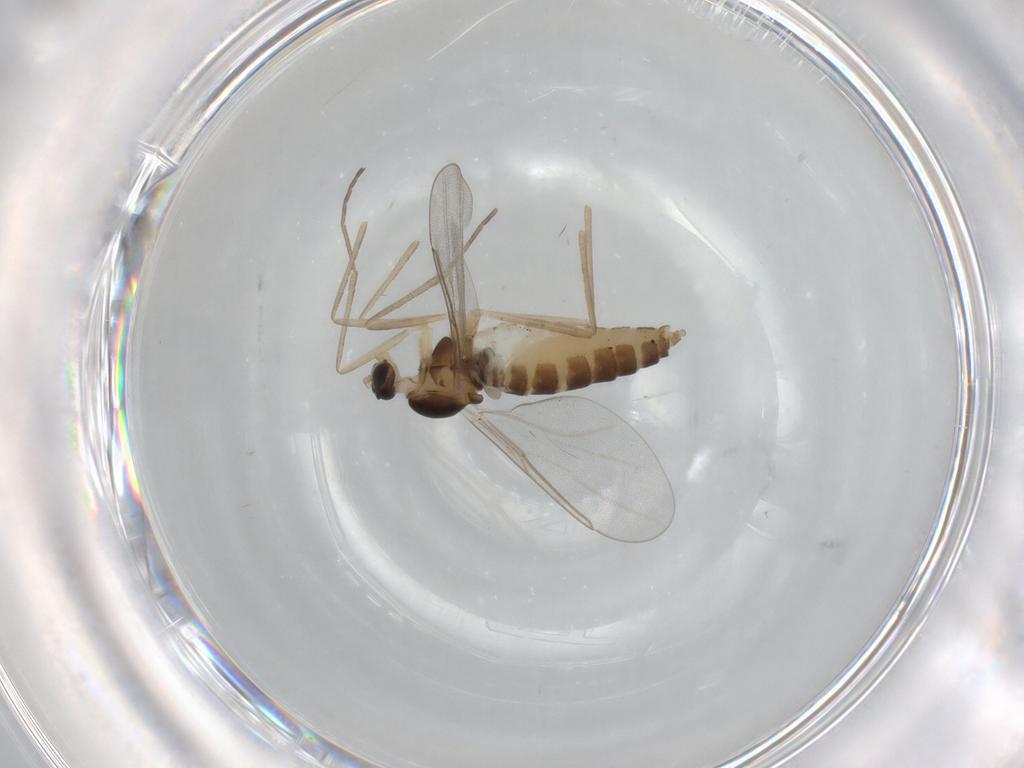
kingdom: Animalia
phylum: Arthropoda
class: Insecta
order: Diptera
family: Cecidomyiidae
